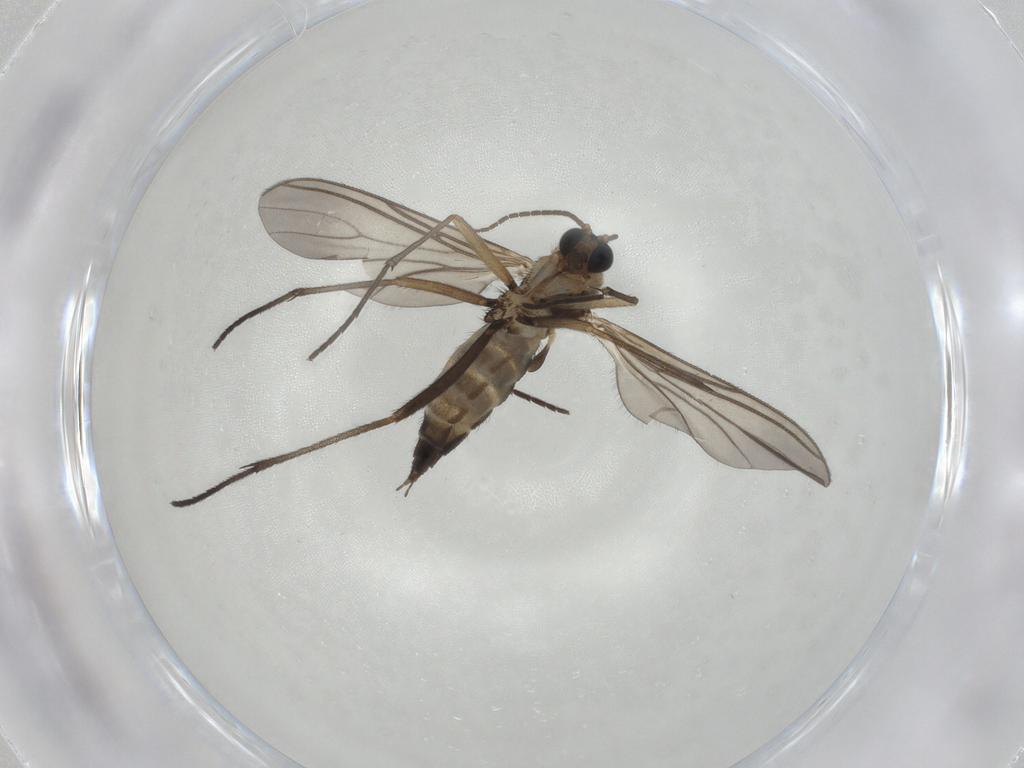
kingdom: Animalia
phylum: Arthropoda
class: Insecta
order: Diptera
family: Sciaridae
